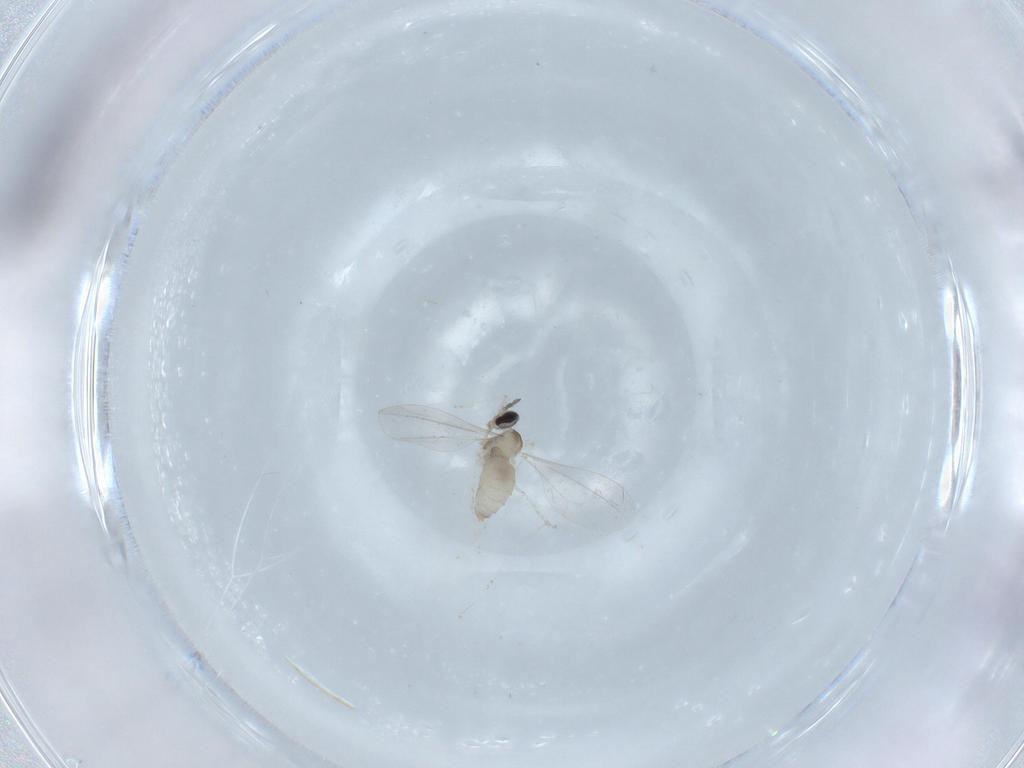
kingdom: Animalia
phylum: Arthropoda
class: Insecta
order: Diptera
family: Cecidomyiidae
